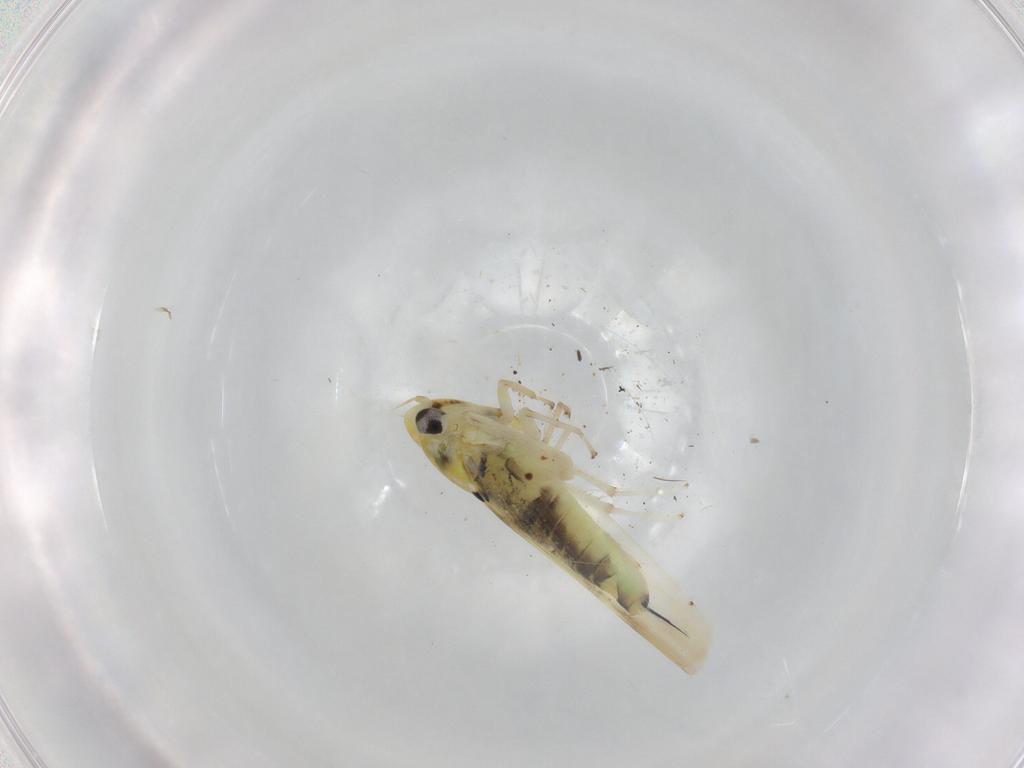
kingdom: Animalia
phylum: Arthropoda
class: Insecta
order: Hemiptera
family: Cicadellidae
